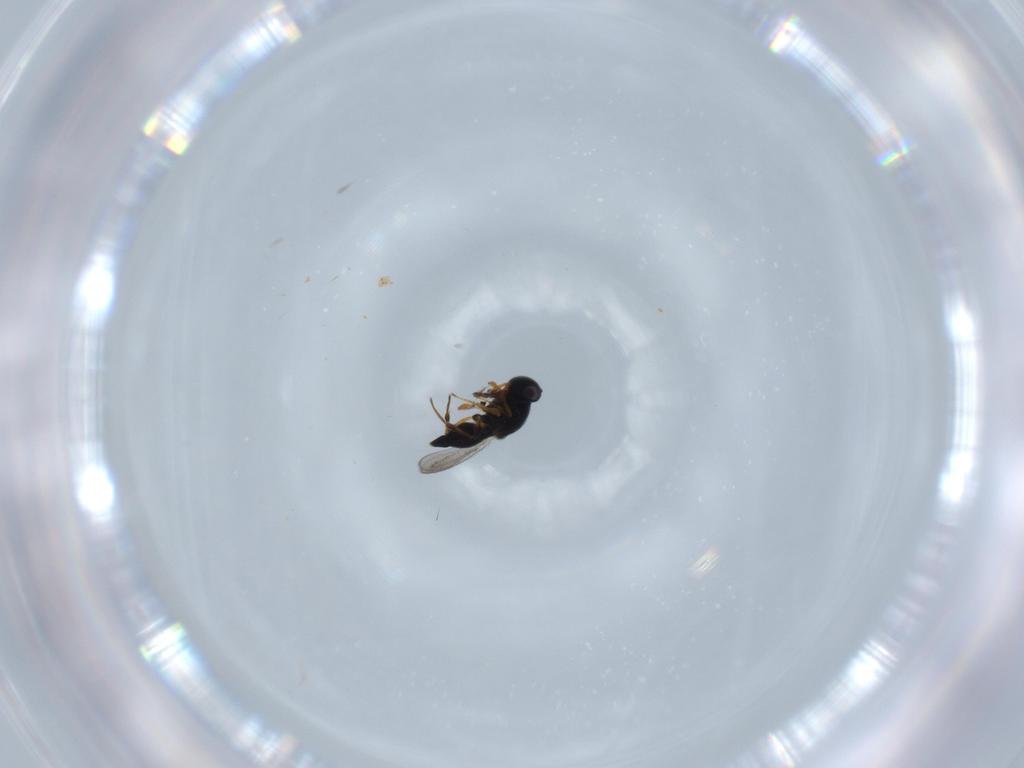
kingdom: Animalia
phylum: Arthropoda
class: Insecta
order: Hymenoptera
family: Platygastridae
